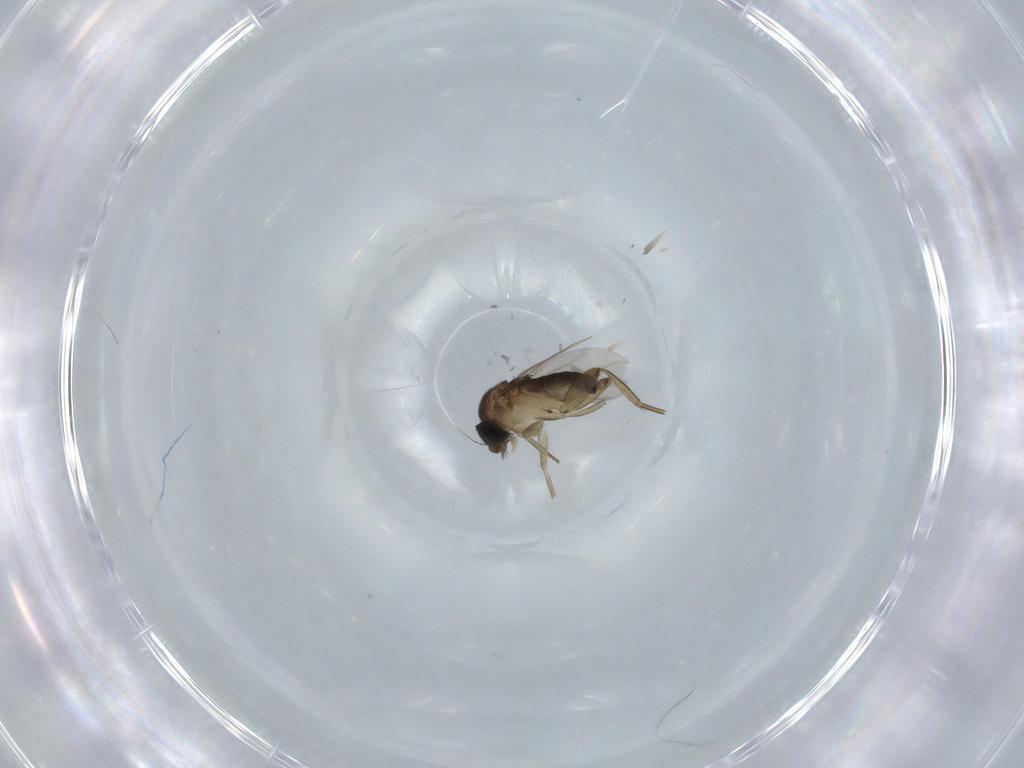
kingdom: Animalia
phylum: Arthropoda
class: Insecta
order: Diptera
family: Phoridae
